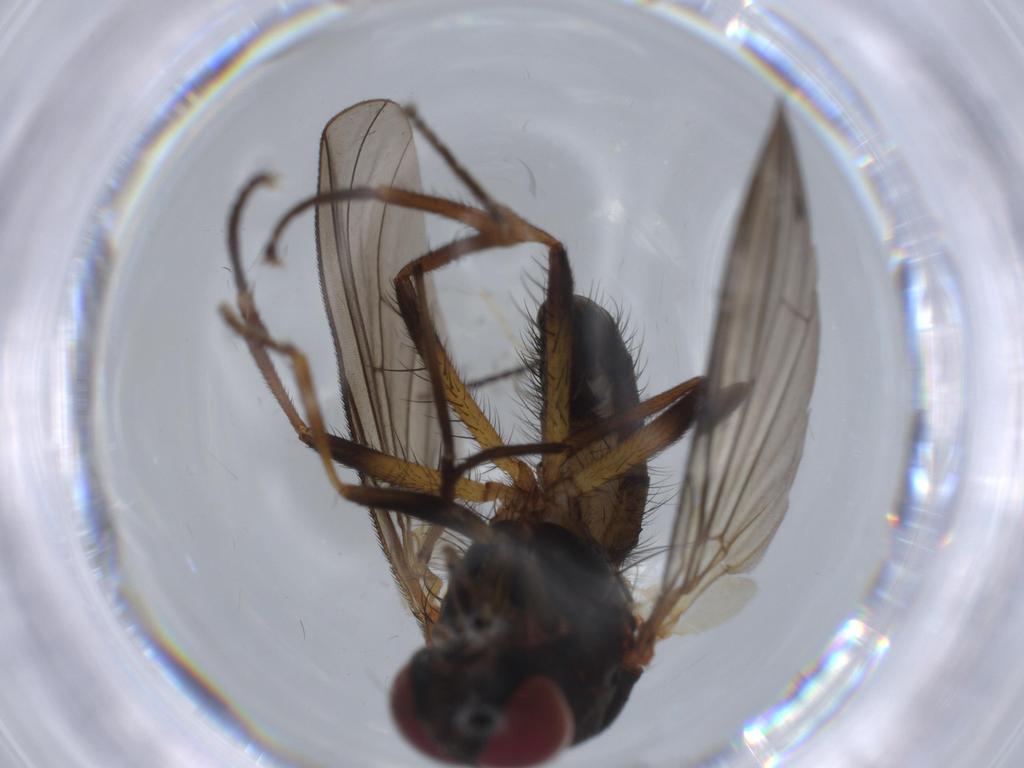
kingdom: Animalia
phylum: Arthropoda
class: Insecta
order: Diptera
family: Anthomyiidae
